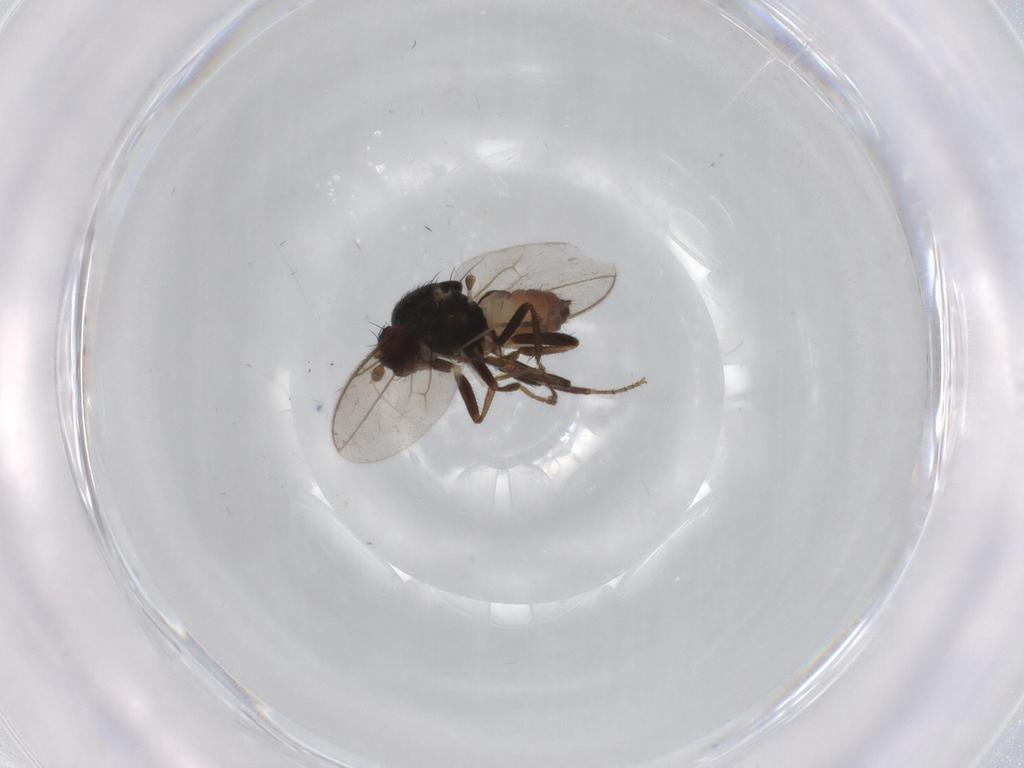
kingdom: Animalia
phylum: Arthropoda
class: Insecta
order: Diptera
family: Sphaeroceridae
